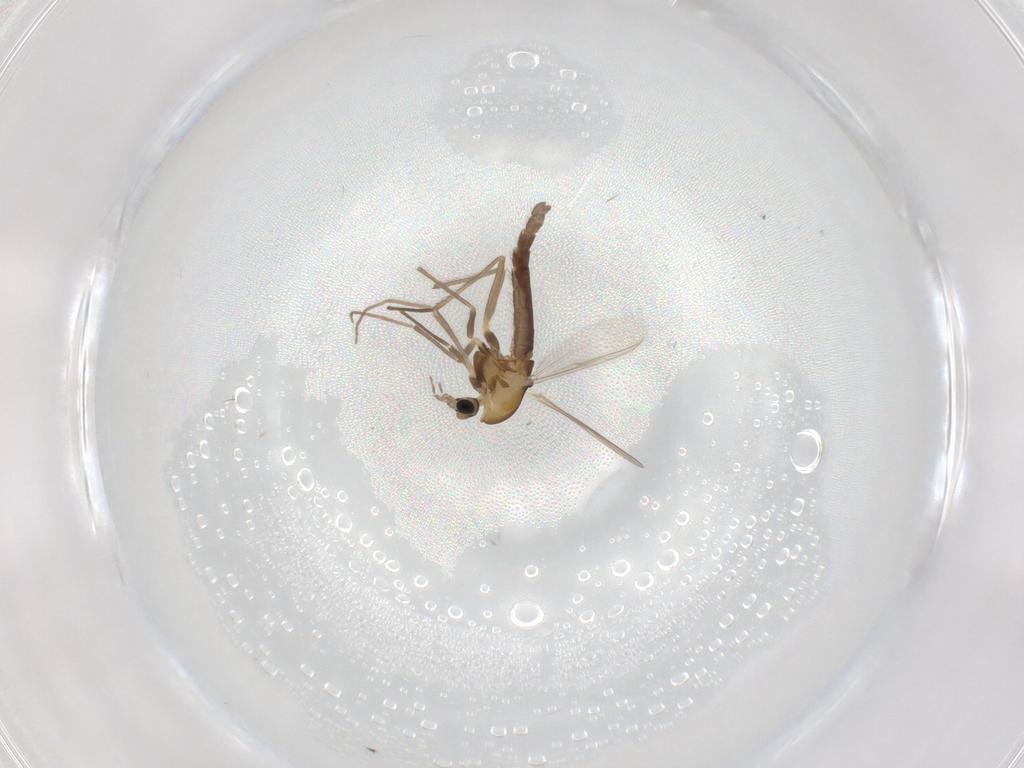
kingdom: Animalia
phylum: Arthropoda
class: Insecta
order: Diptera
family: Chironomidae
